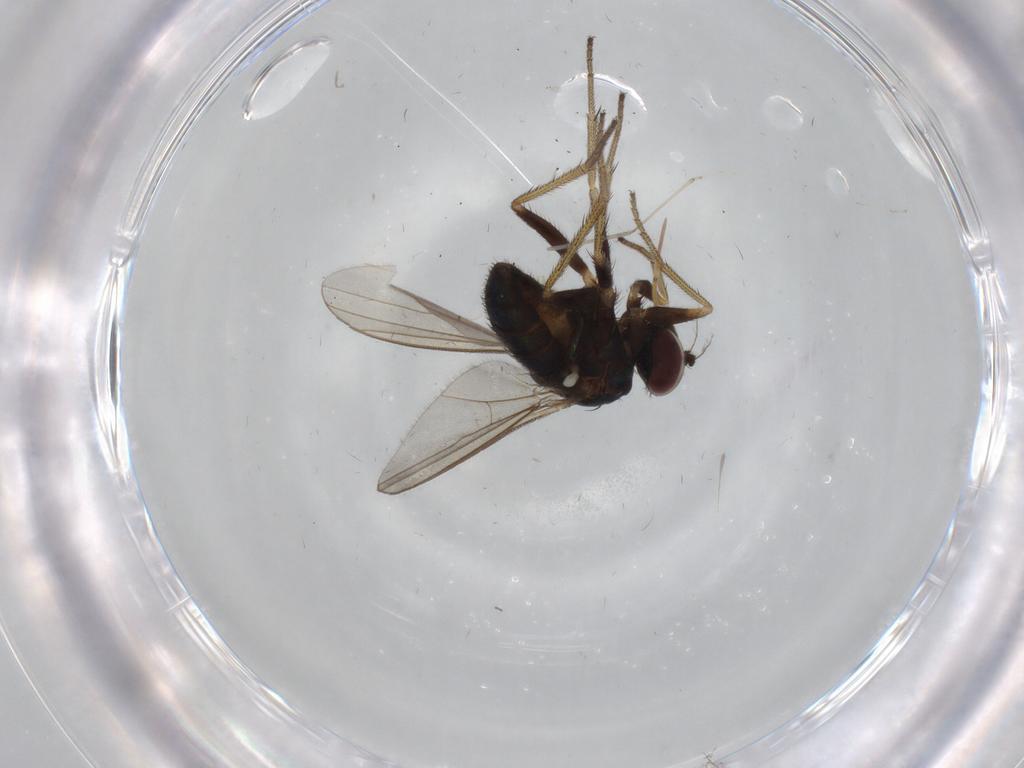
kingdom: Animalia
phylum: Arthropoda
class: Insecta
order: Diptera
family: Dolichopodidae
